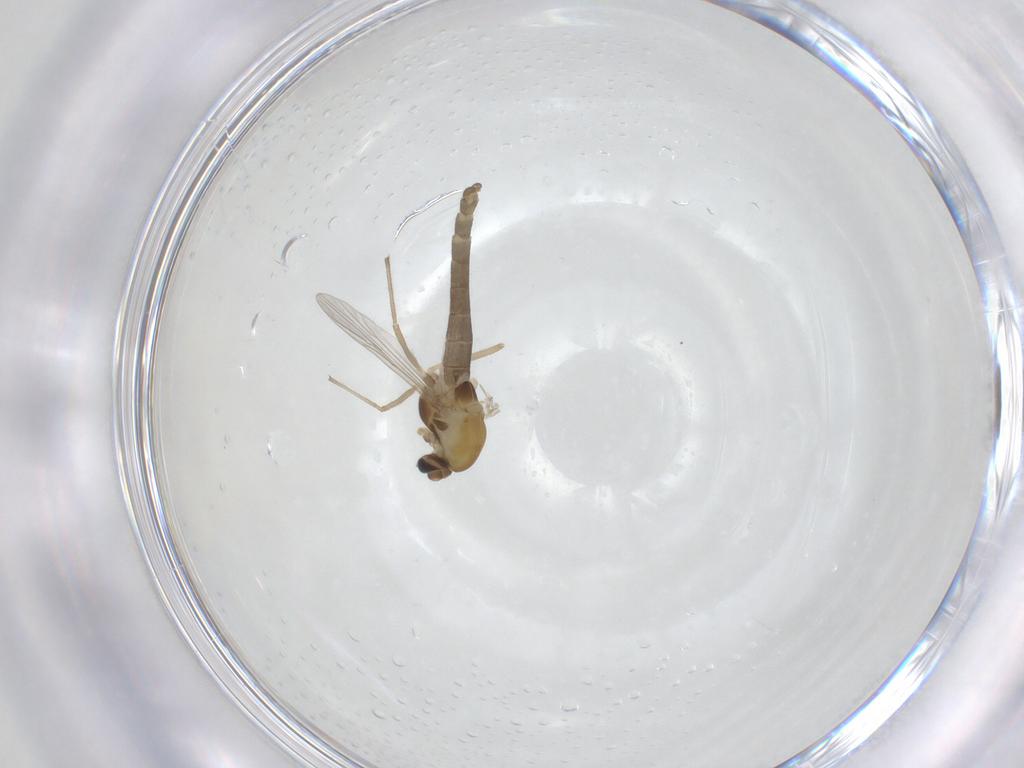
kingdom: Animalia
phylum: Arthropoda
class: Insecta
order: Diptera
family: Chironomidae
